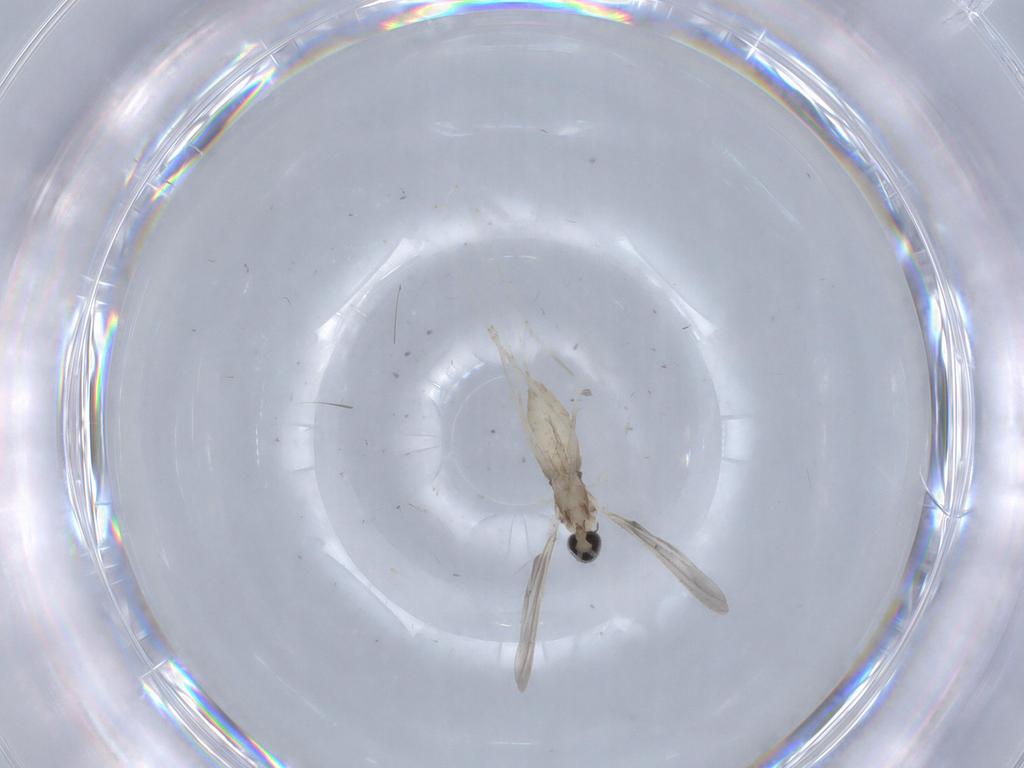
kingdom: Animalia
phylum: Arthropoda
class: Insecta
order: Diptera
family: Cecidomyiidae
